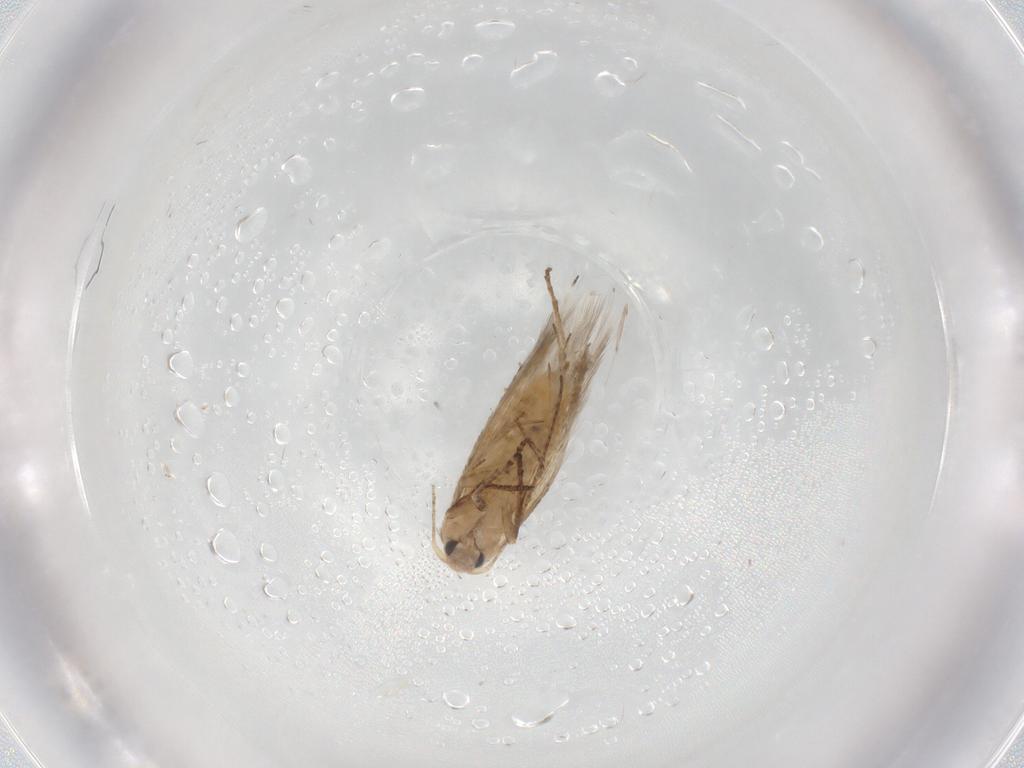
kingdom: Animalia
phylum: Arthropoda
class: Insecta
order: Lepidoptera
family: Bucculatricidae
